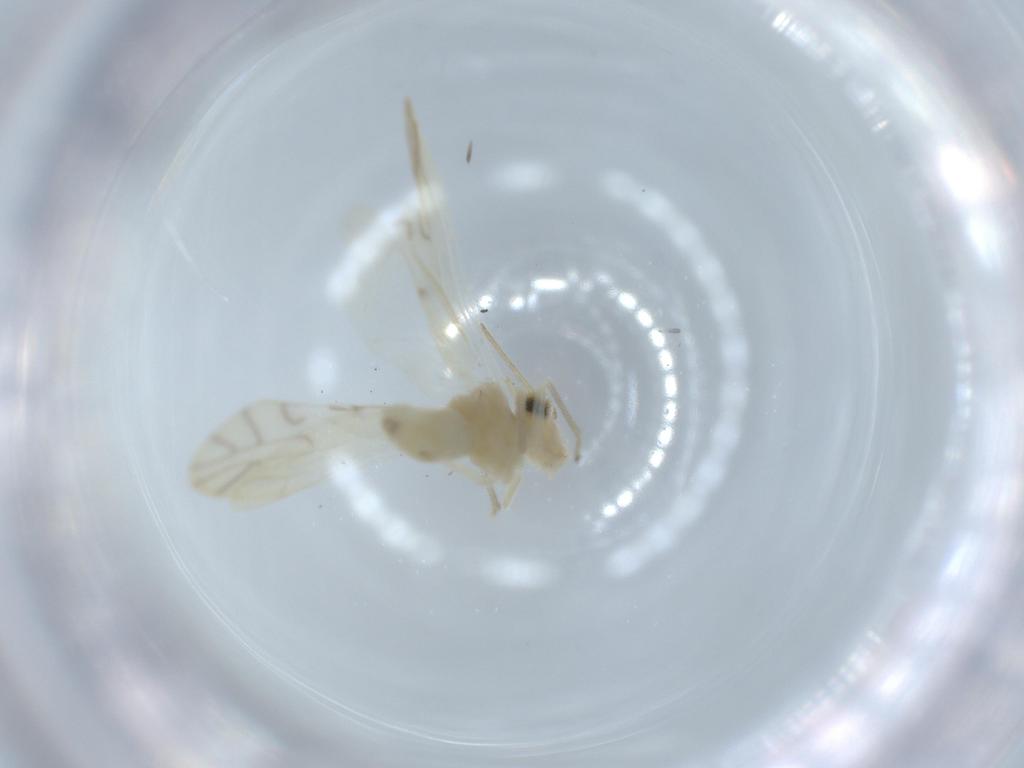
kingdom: Animalia
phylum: Arthropoda
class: Insecta
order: Psocodea
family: Caeciliusidae
